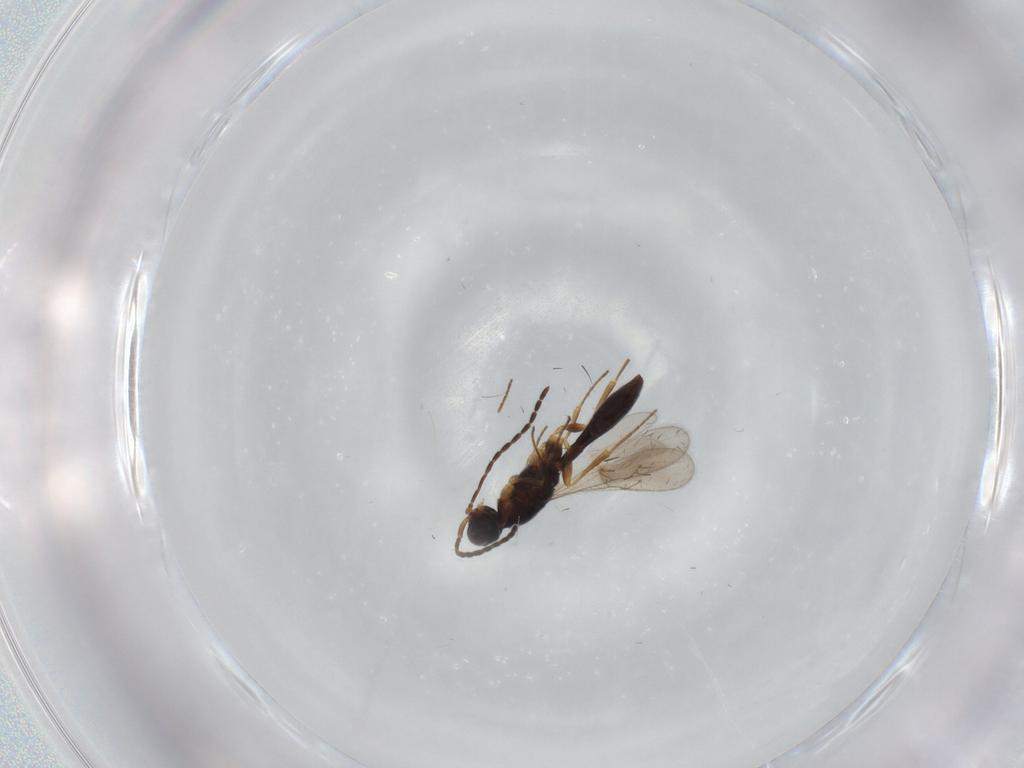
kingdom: Animalia
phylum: Arthropoda
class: Insecta
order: Hymenoptera
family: Scelionidae
